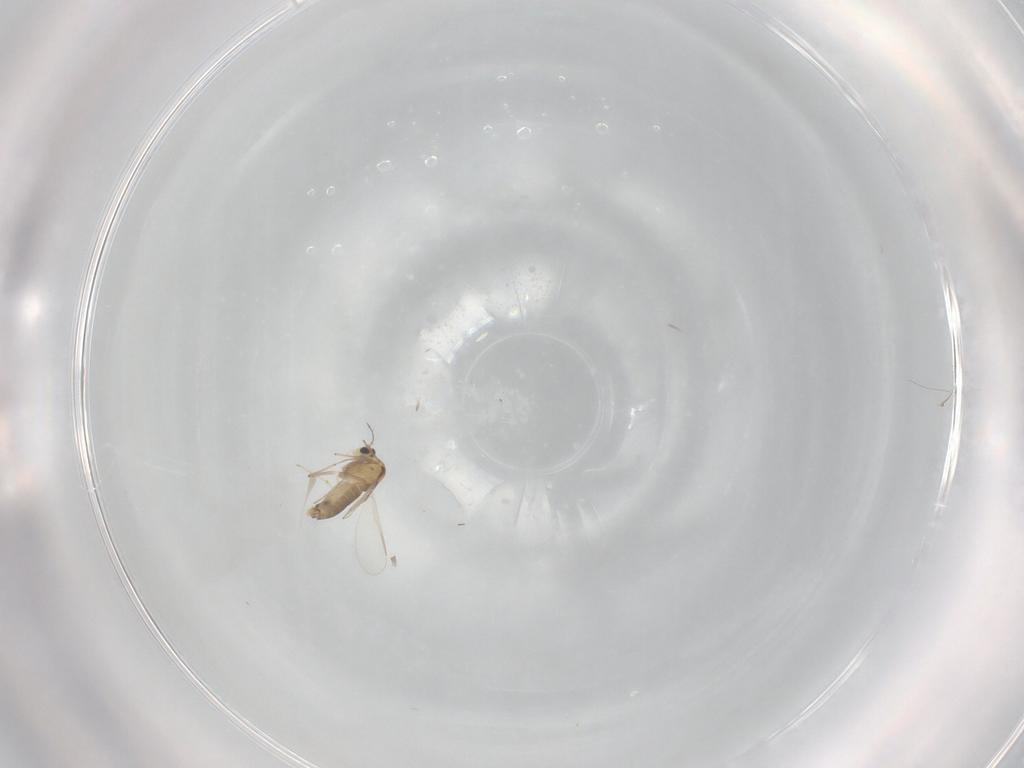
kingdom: Animalia
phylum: Arthropoda
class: Insecta
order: Diptera
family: Chironomidae
